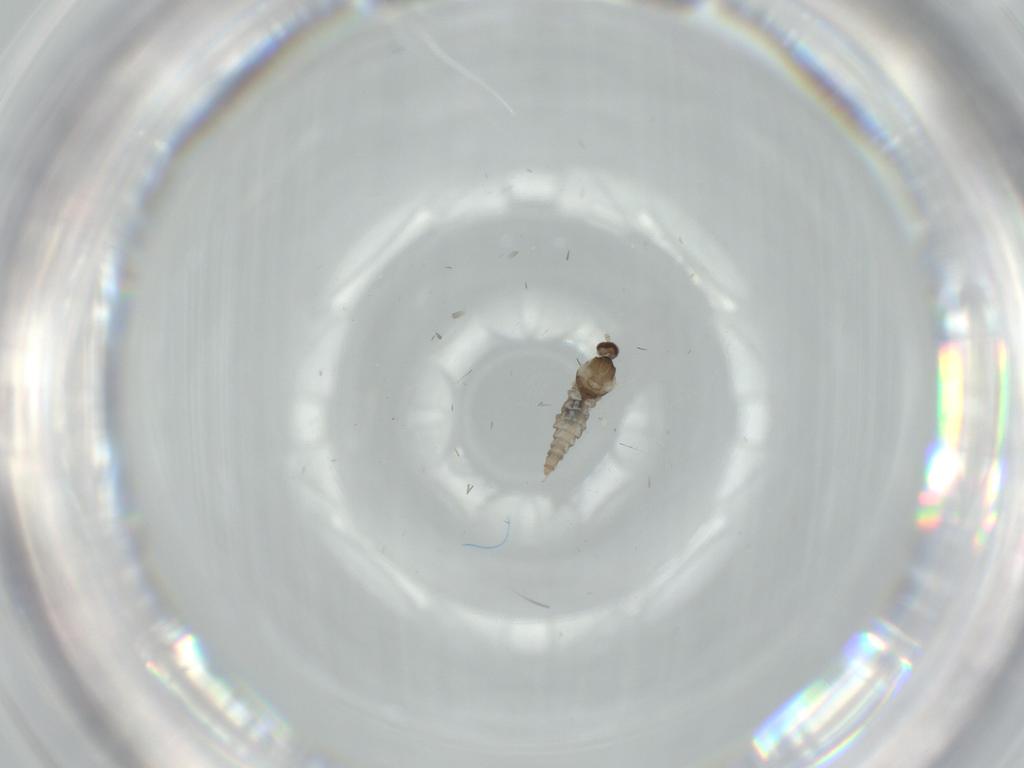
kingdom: Animalia
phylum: Arthropoda
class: Insecta
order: Diptera
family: Cecidomyiidae
